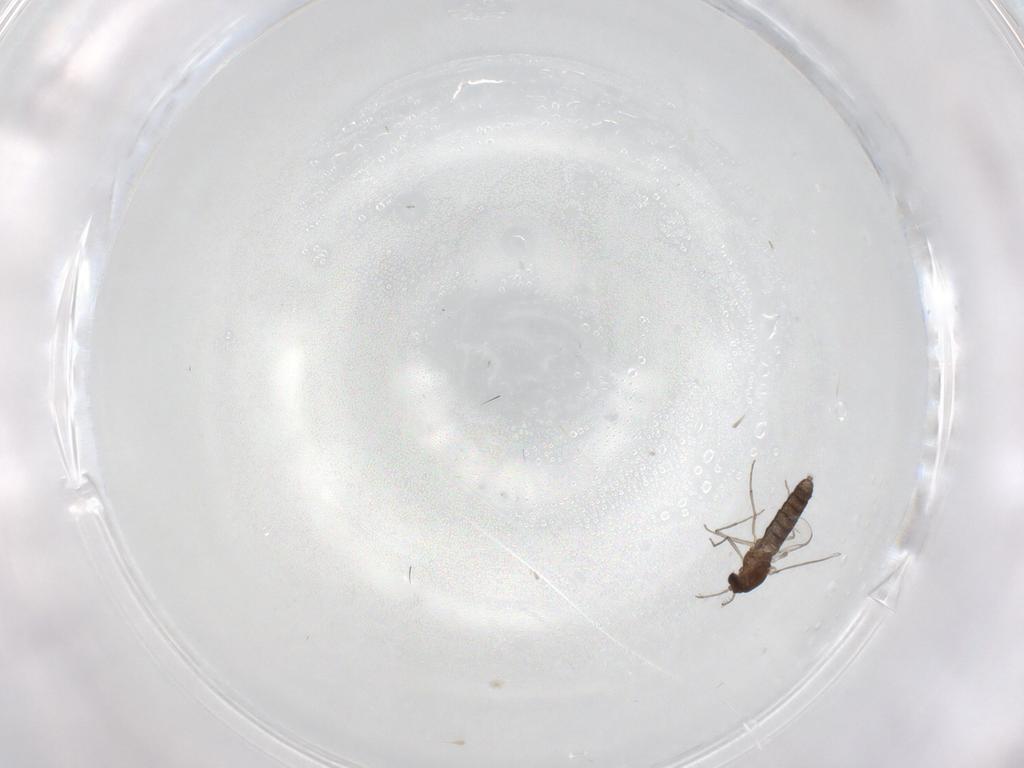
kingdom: Animalia
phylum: Arthropoda
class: Insecta
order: Diptera
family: Chironomidae
